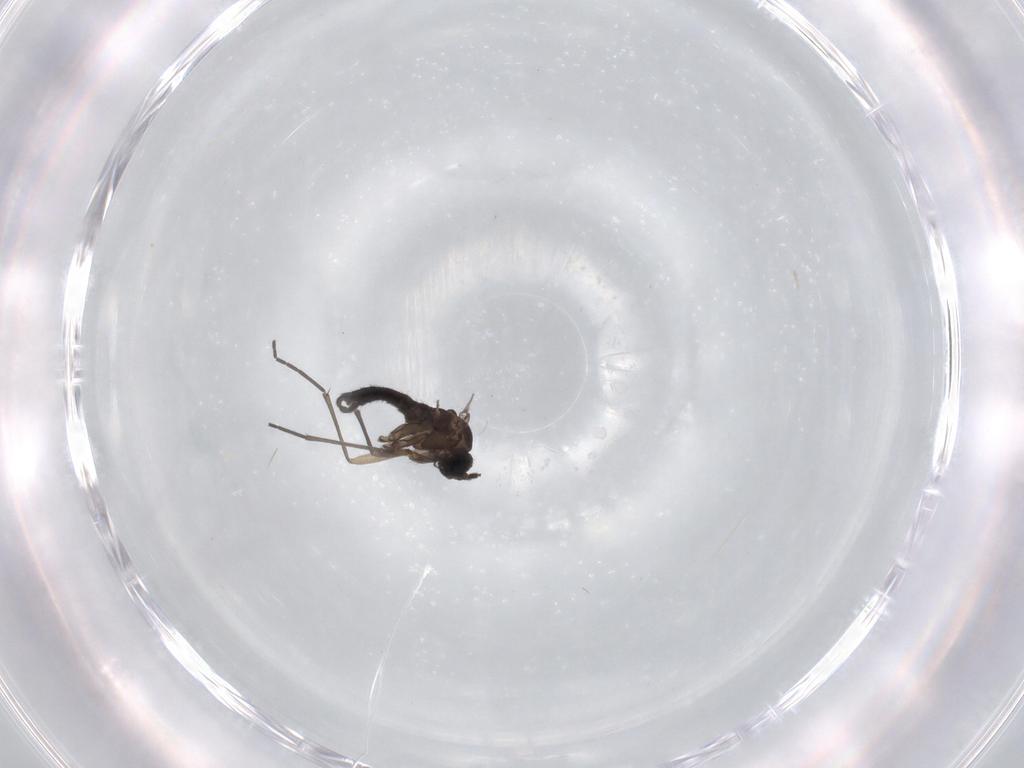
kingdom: Animalia
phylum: Arthropoda
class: Insecta
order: Diptera
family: Sciaridae
